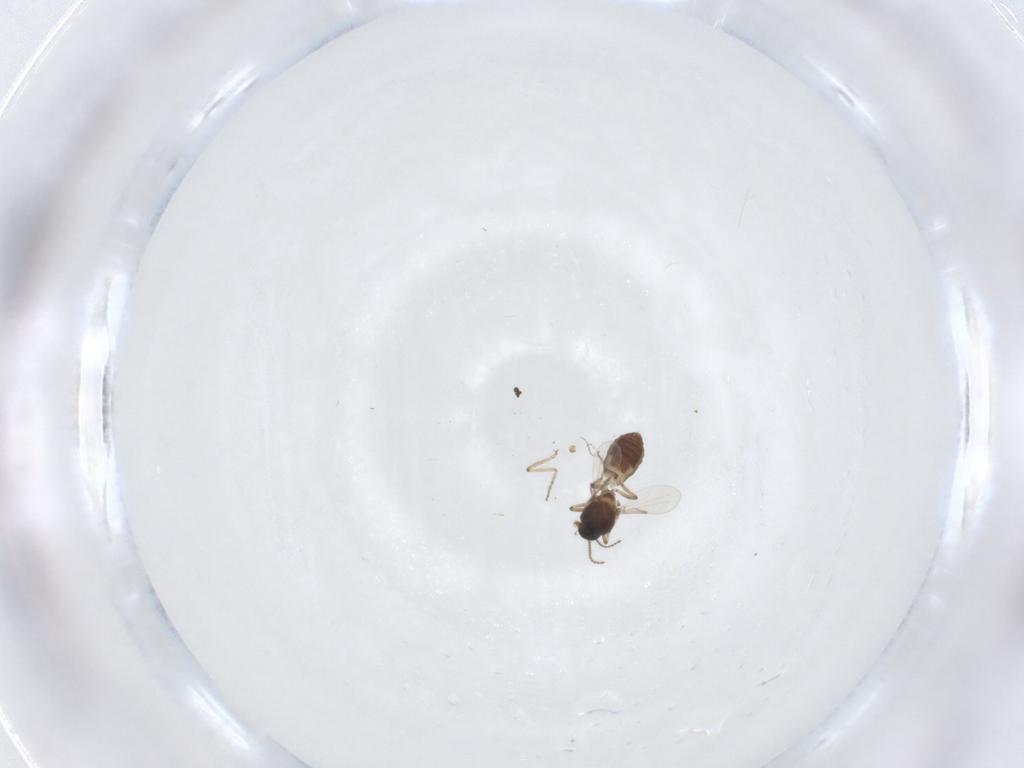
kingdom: Animalia
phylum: Arthropoda
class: Insecta
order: Diptera
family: Ceratopogonidae
